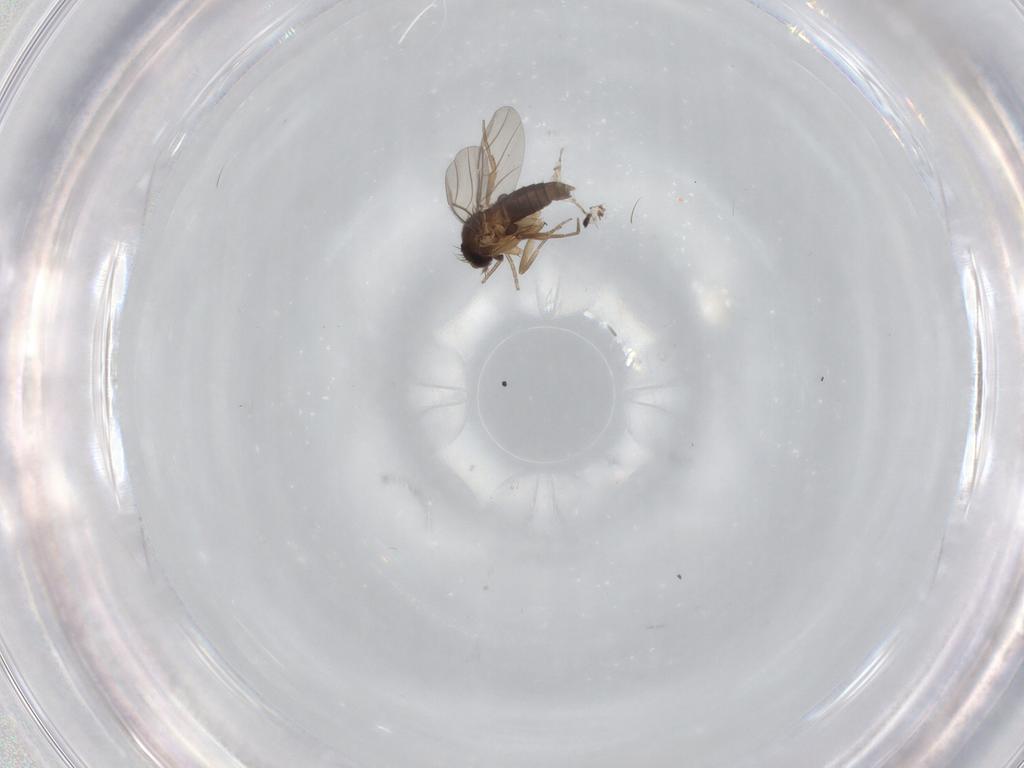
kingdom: Animalia
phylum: Arthropoda
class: Insecta
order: Diptera
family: Phoridae
